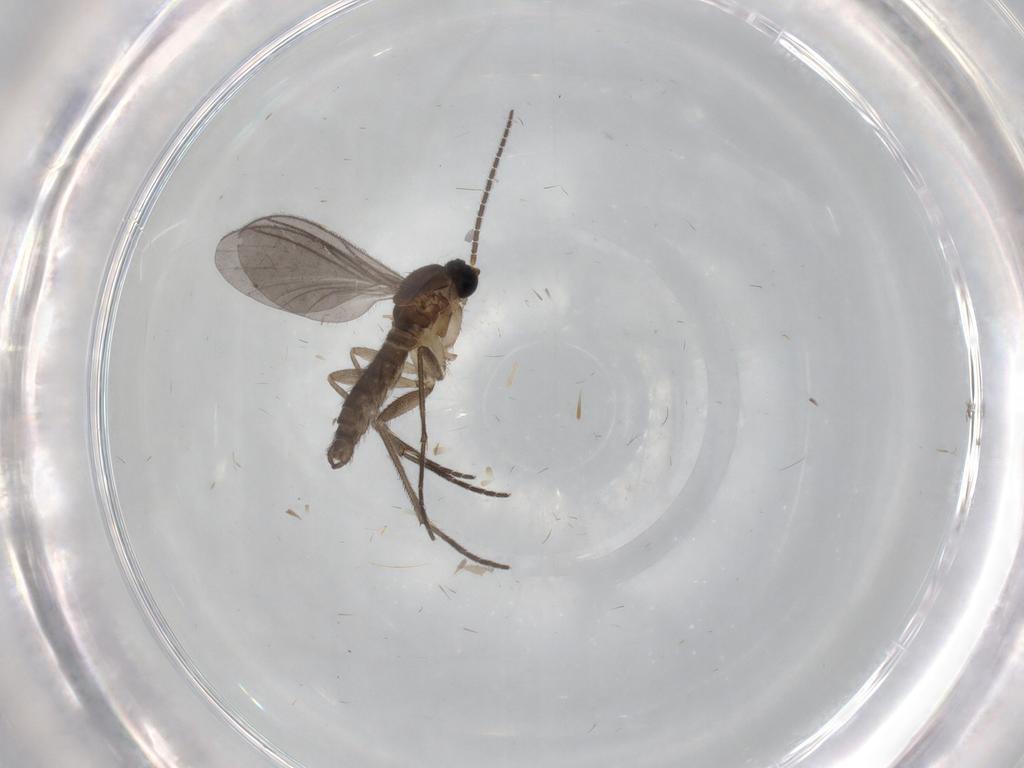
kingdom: Animalia
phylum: Arthropoda
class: Insecta
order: Diptera
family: Sciaridae
